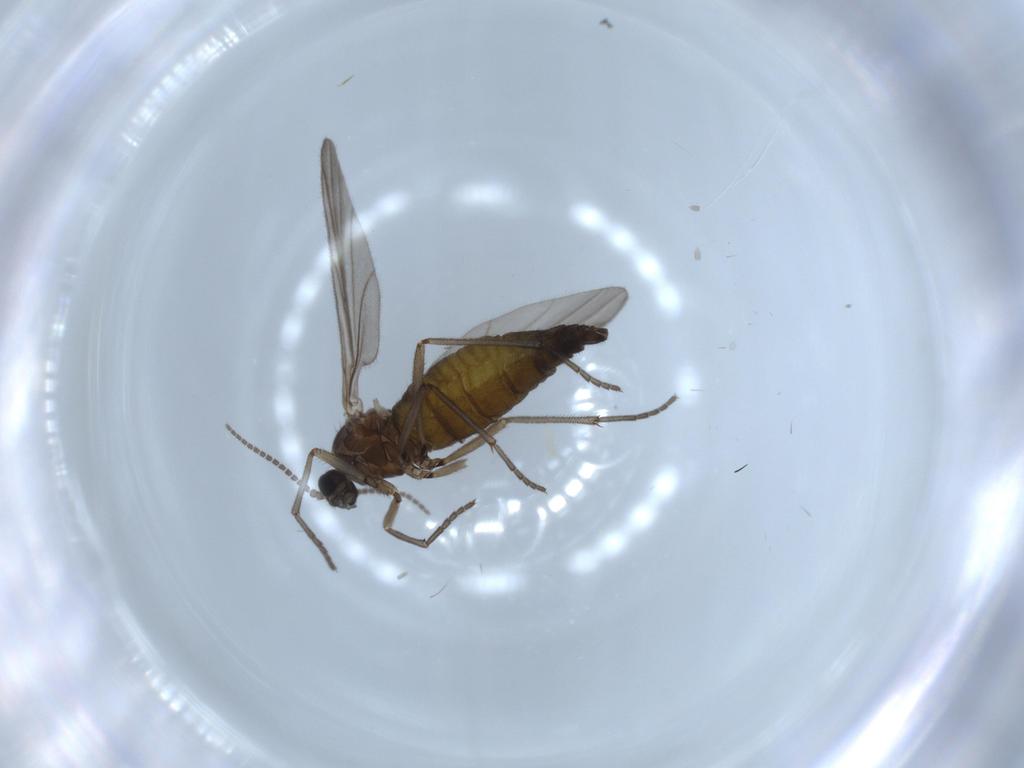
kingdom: Animalia
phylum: Arthropoda
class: Insecta
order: Diptera
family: Sciaridae
